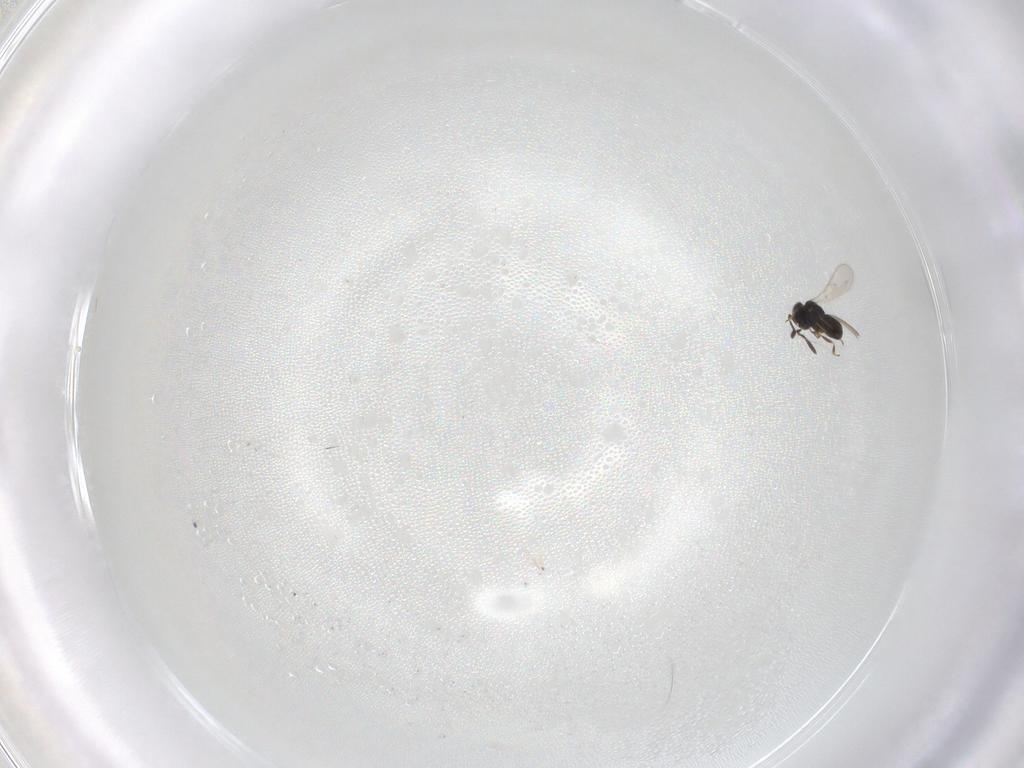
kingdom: Animalia
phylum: Arthropoda
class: Insecta
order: Hymenoptera
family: Scelionidae
